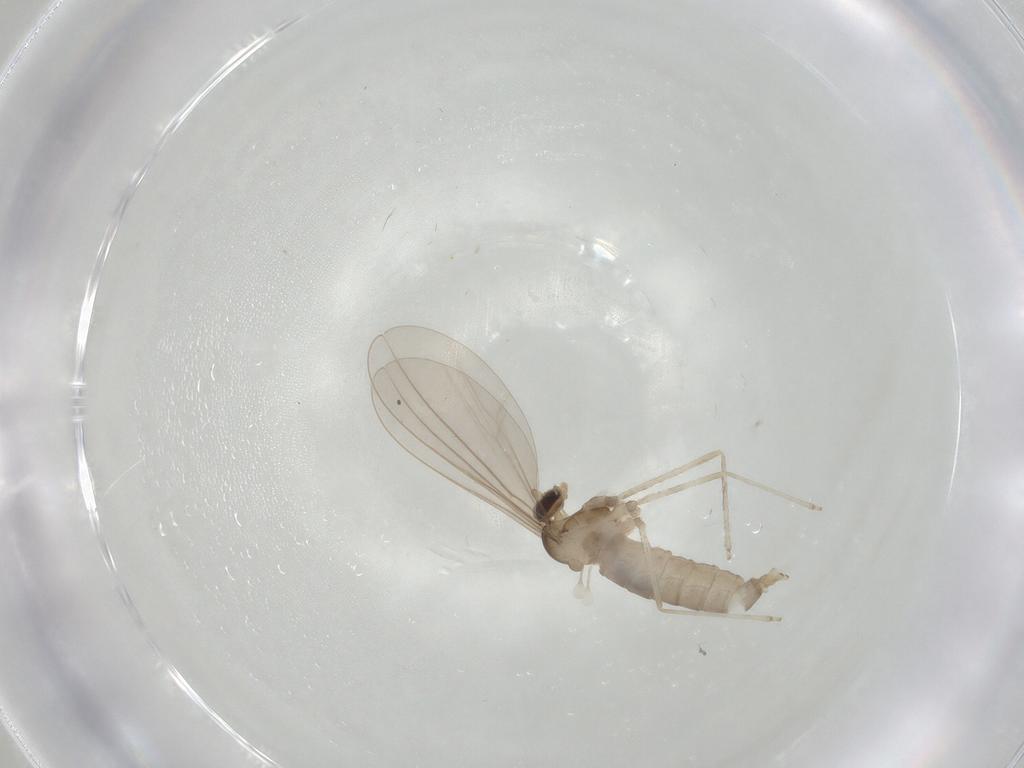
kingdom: Animalia
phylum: Arthropoda
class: Insecta
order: Diptera
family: Cecidomyiidae
